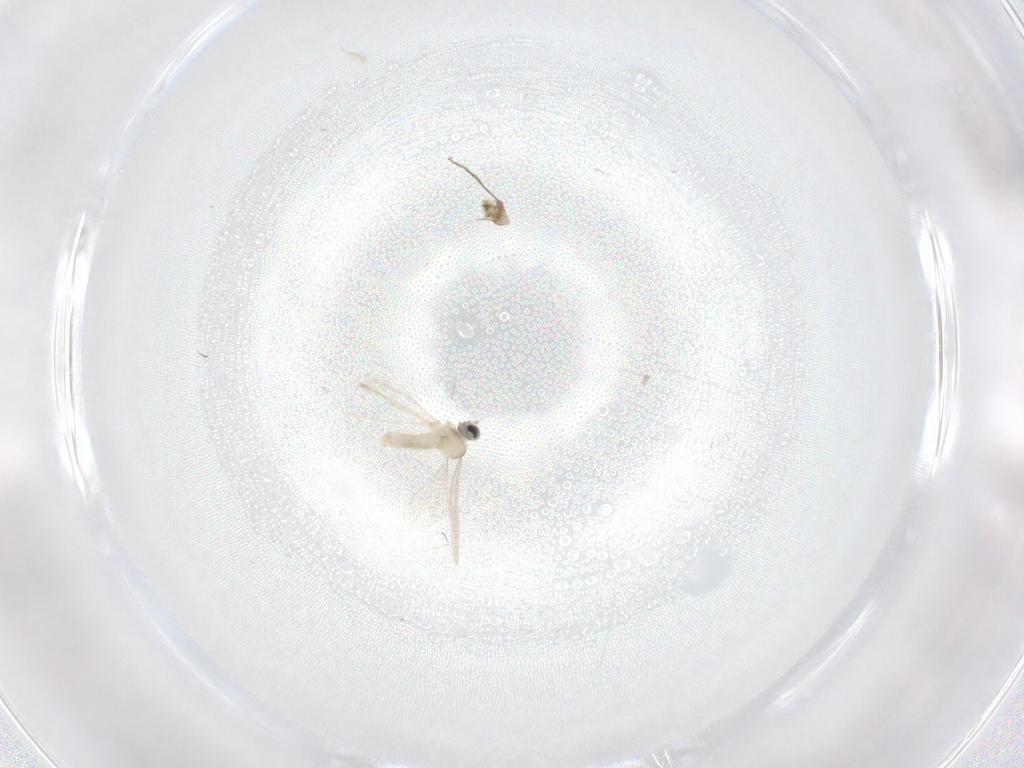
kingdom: Animalia
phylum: Arthropoda
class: Insecta
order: Diptera
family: Cecidomyiidae
